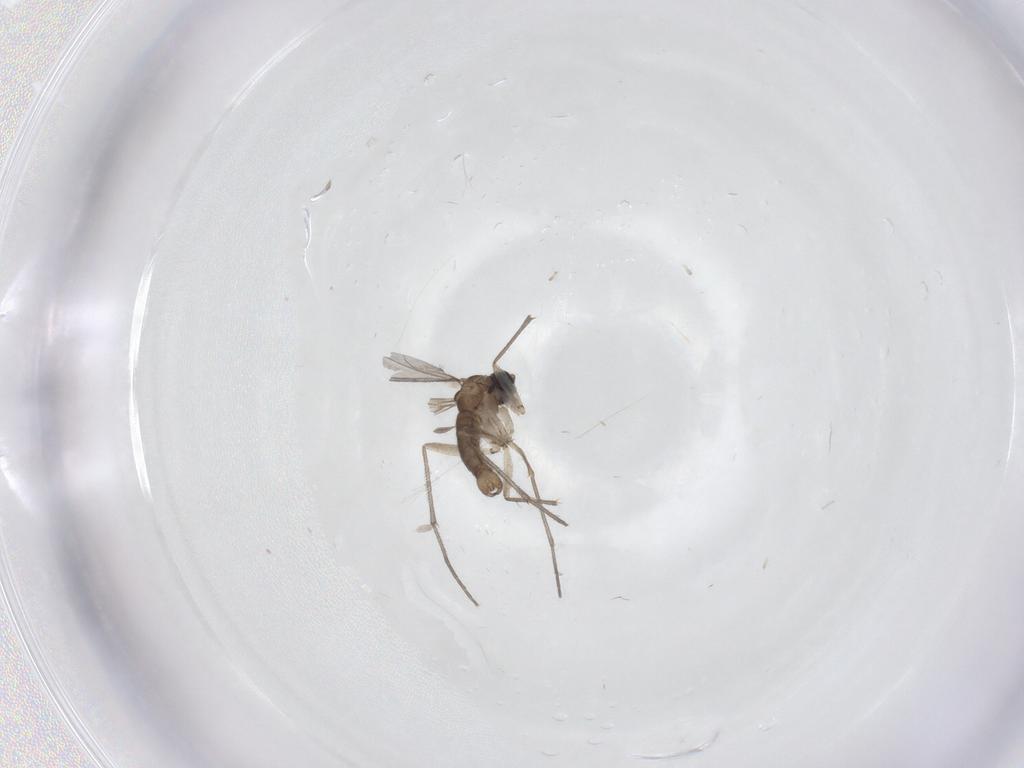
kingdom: Animalia
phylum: Arthropoda
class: Insecta
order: Diptera
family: Sciaridae
